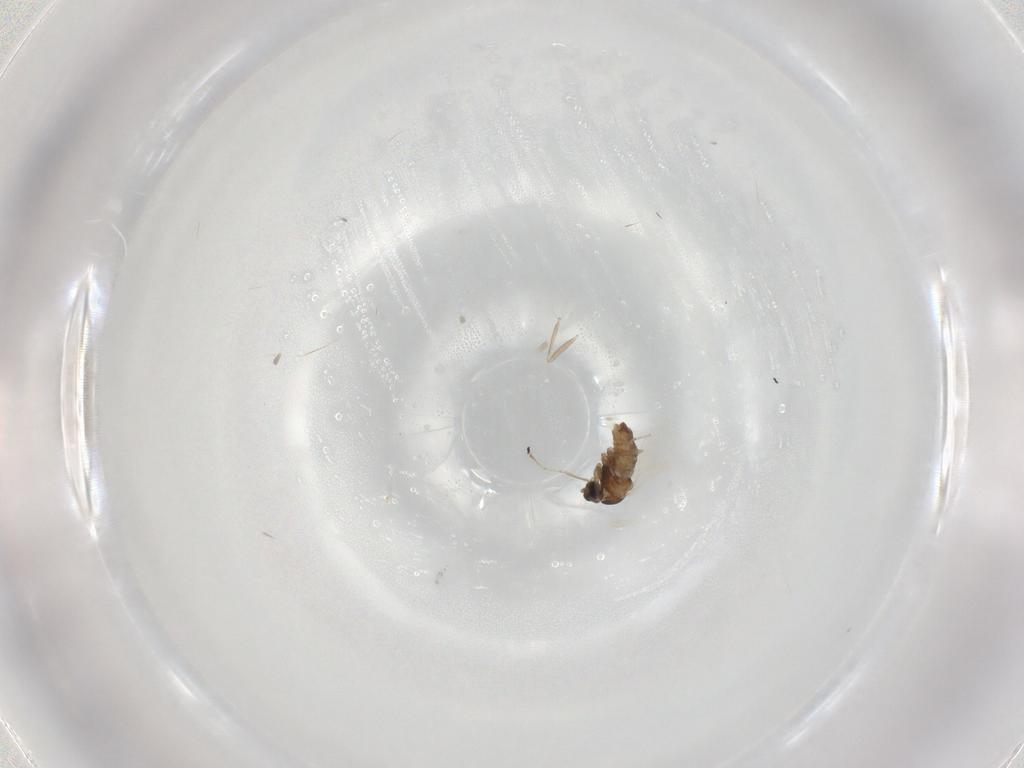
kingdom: Animalia
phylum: Arthropoda
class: Insecta
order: Diptera
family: Cecidomyiidae
